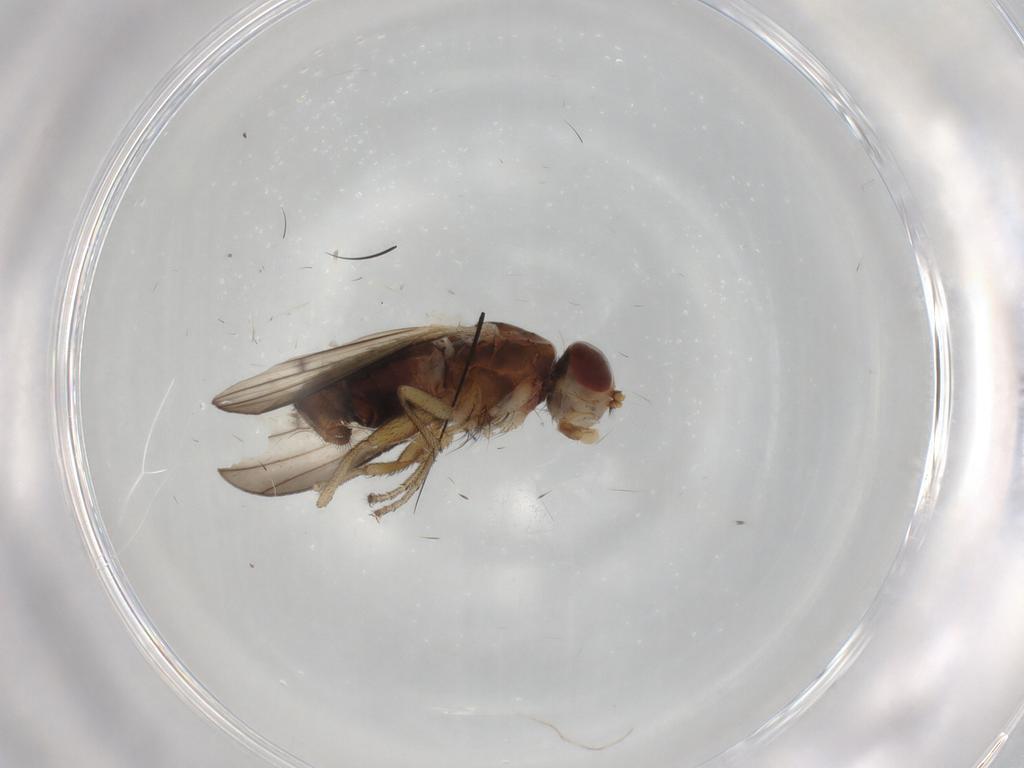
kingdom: Animalia
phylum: Arthropoda
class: Insecta
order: Diptera
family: Heleomyzidae
